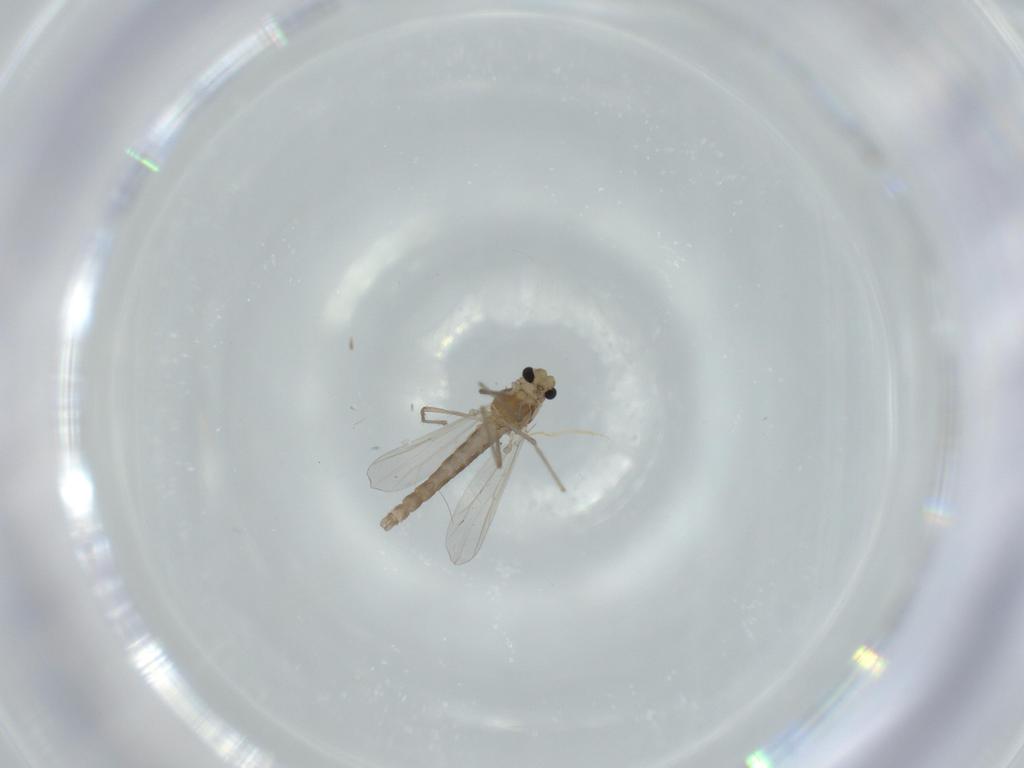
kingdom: Animalia
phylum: Arthropoda
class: Insecta
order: Diptera
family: Chironomidae
